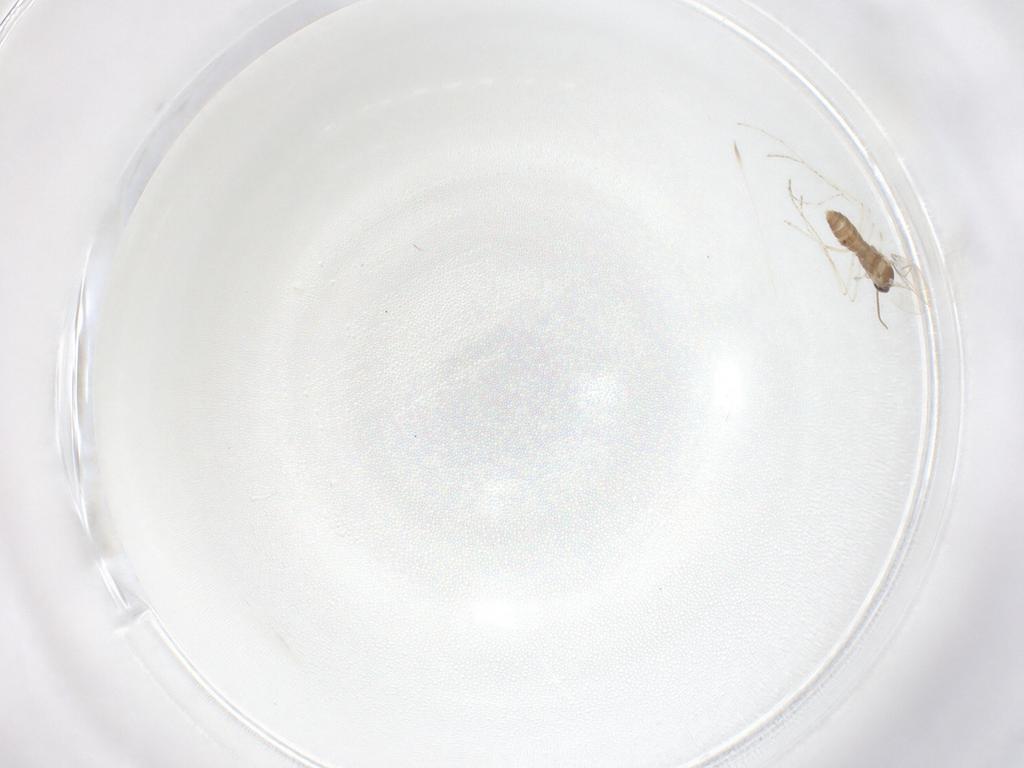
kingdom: Animalia
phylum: Arthropoda
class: Insecta
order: Diptera
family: Cecidomyiidae
